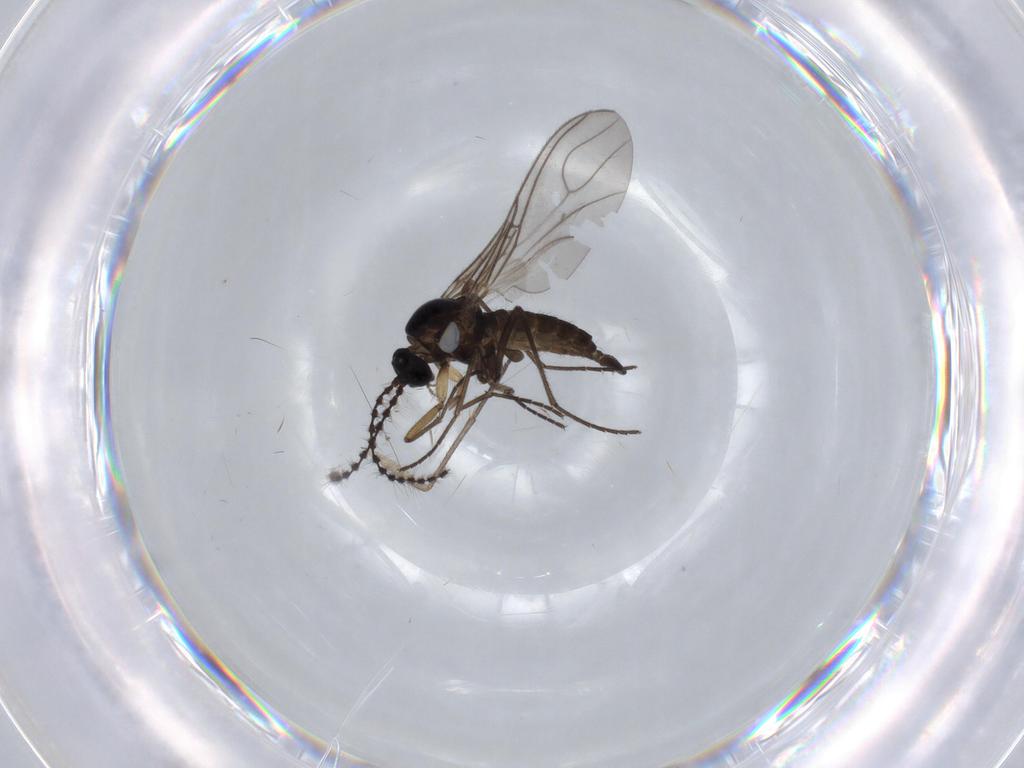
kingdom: Animalia
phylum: Arthropoda
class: Insecta
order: Diptera
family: Sciaridae
